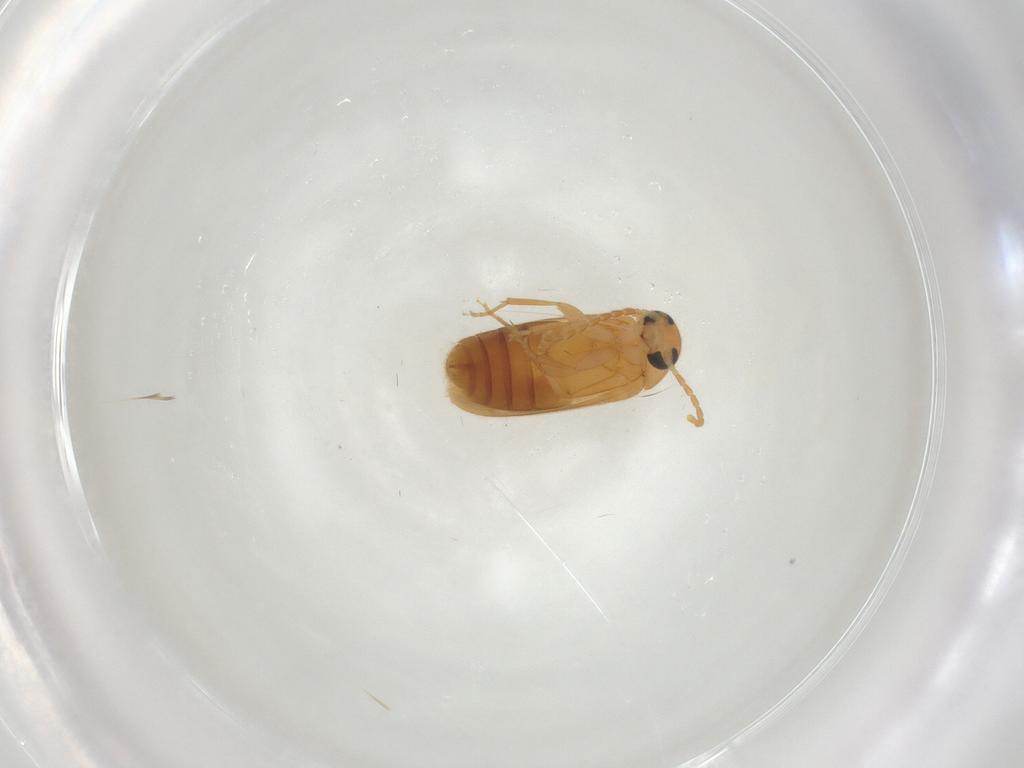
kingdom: Animalia
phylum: Arthropoda
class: Insecta
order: Coleoptera
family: Scraptiidae
